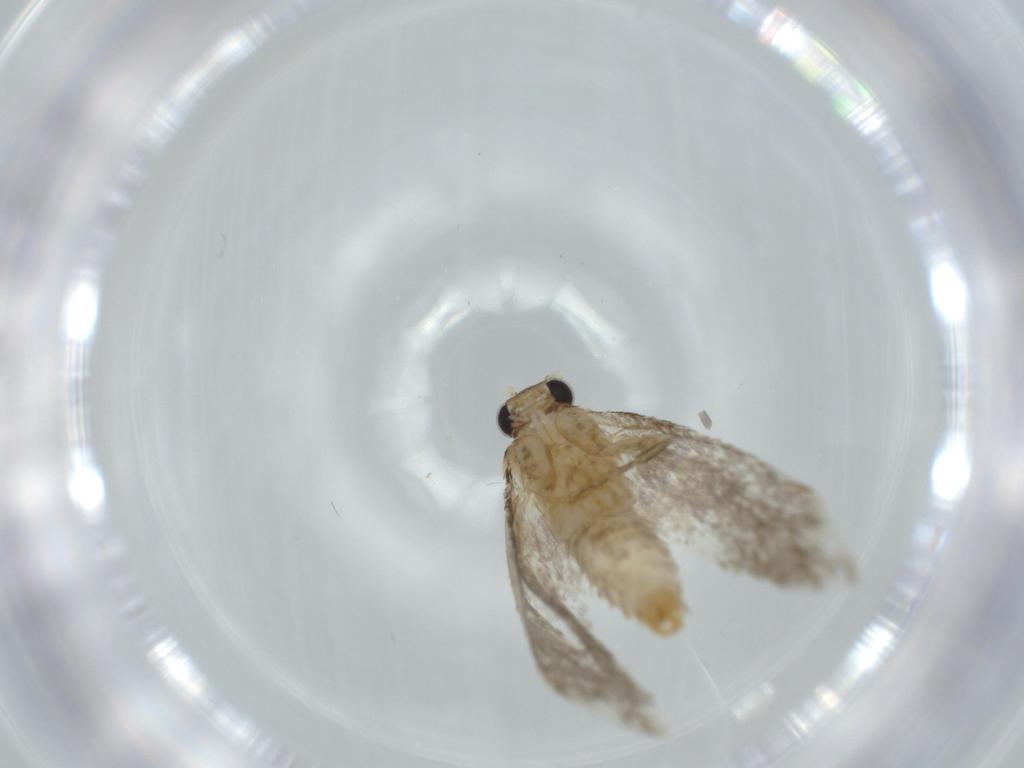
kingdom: Animalia
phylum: Arthropoda
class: Insecta
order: Lepidoptera
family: Tineidae
